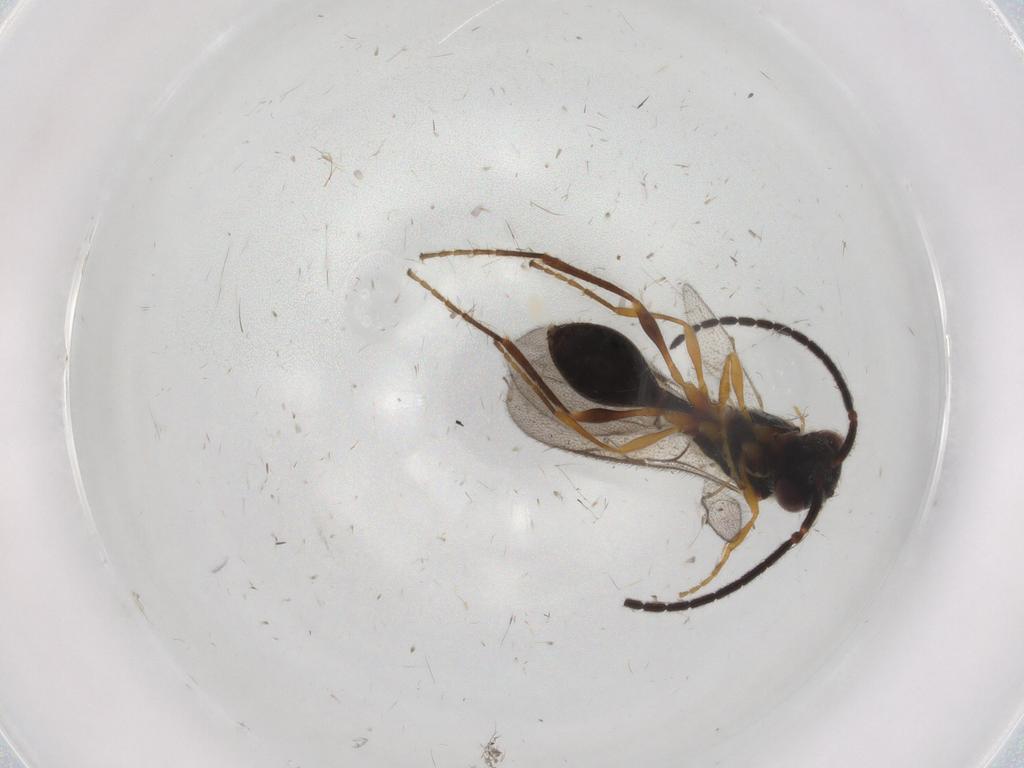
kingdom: Animalia
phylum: Arthropoda
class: Insecta
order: Hymenoptera
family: Diapriidae
